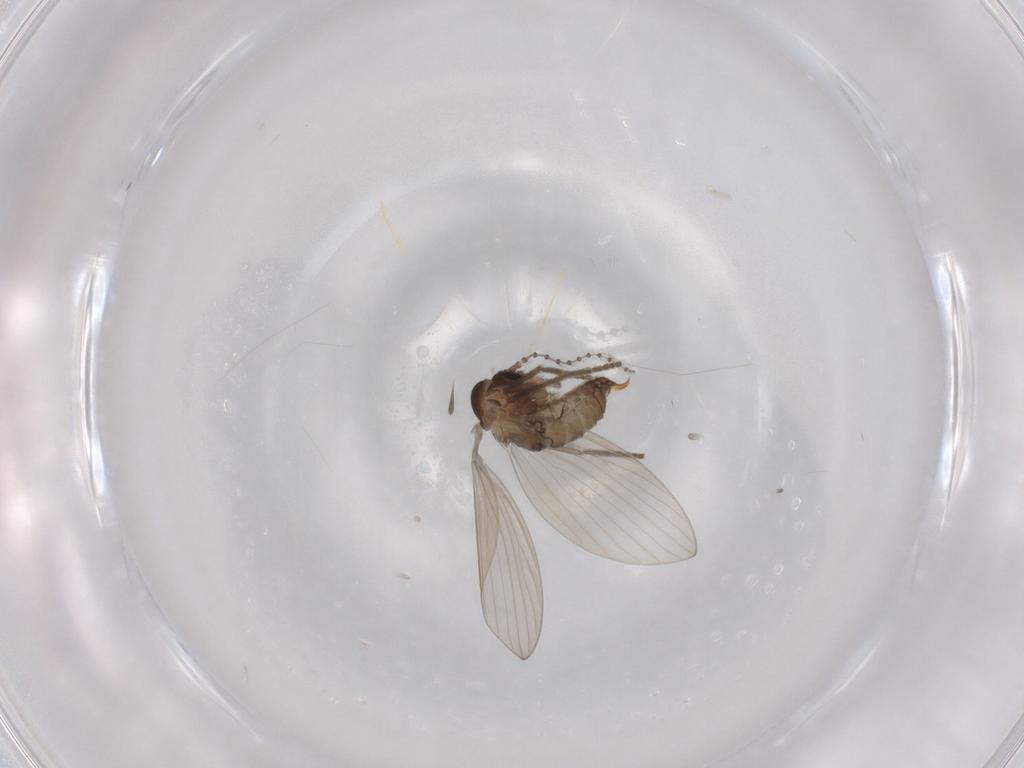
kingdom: Animalia
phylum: Arthropoda
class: Insecta
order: Diptera
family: Psychodidae
